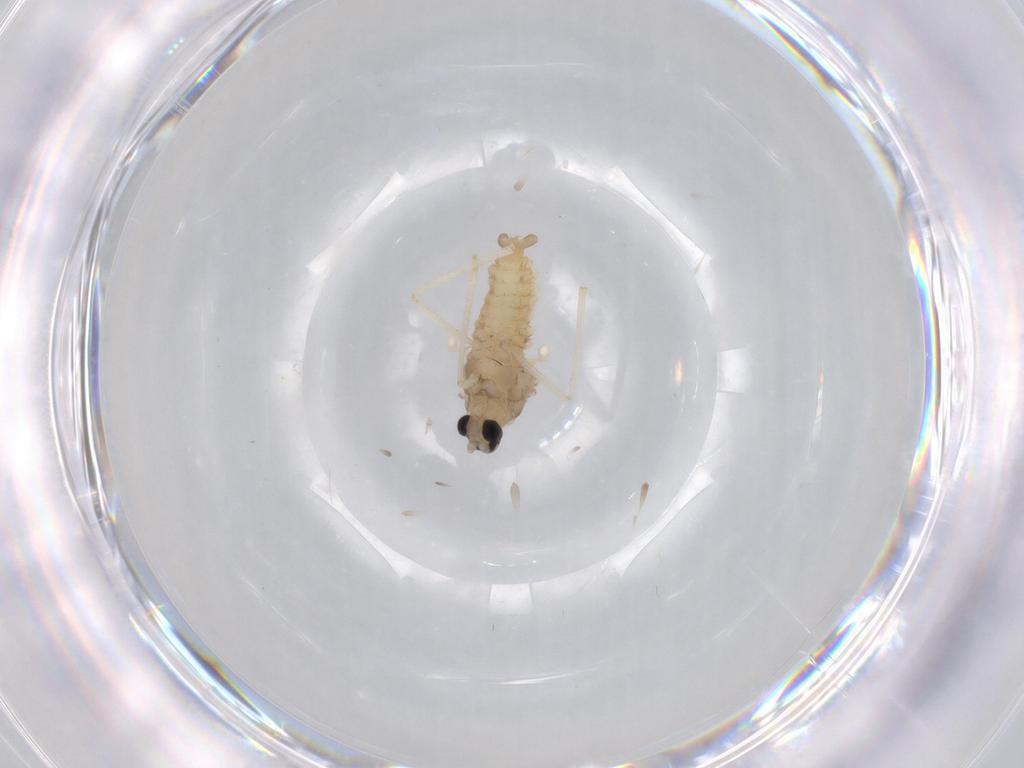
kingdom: Animalia
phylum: Arthropoda
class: Insecta
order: Diptera
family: Cecidomyiidae
